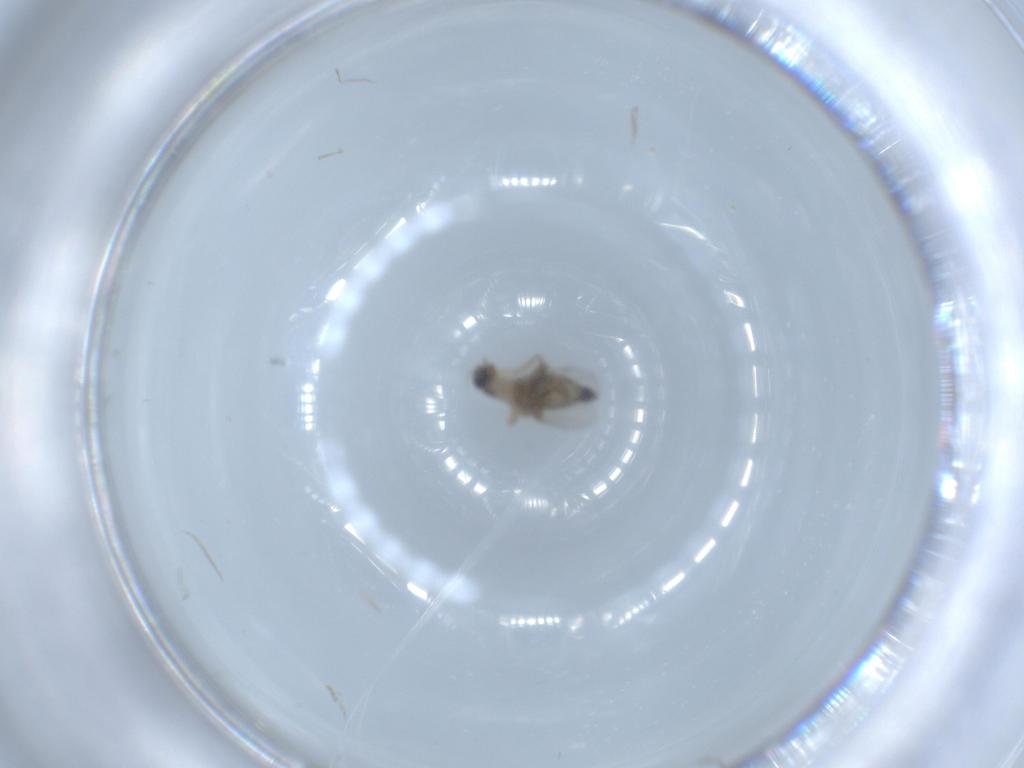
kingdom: Animalia
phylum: Arthropoda
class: Insecta
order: Diptera
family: Phoridae
